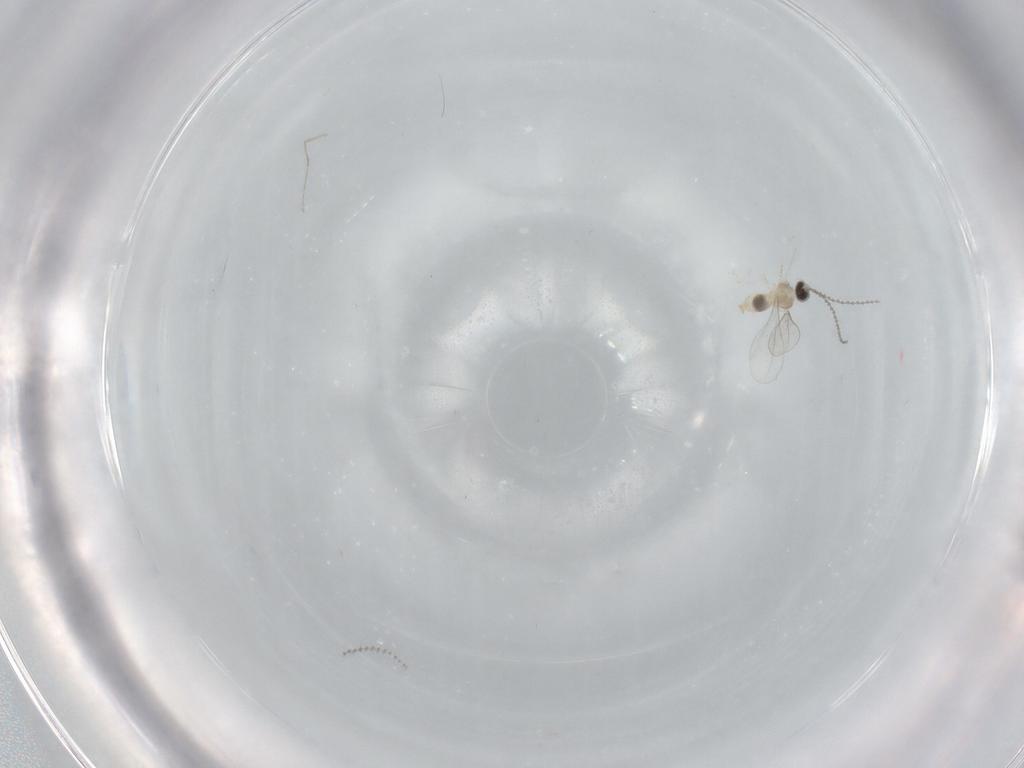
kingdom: Animalia
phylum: Arthropoda
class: Insecta
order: Diptera
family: Cecidomyiidae
